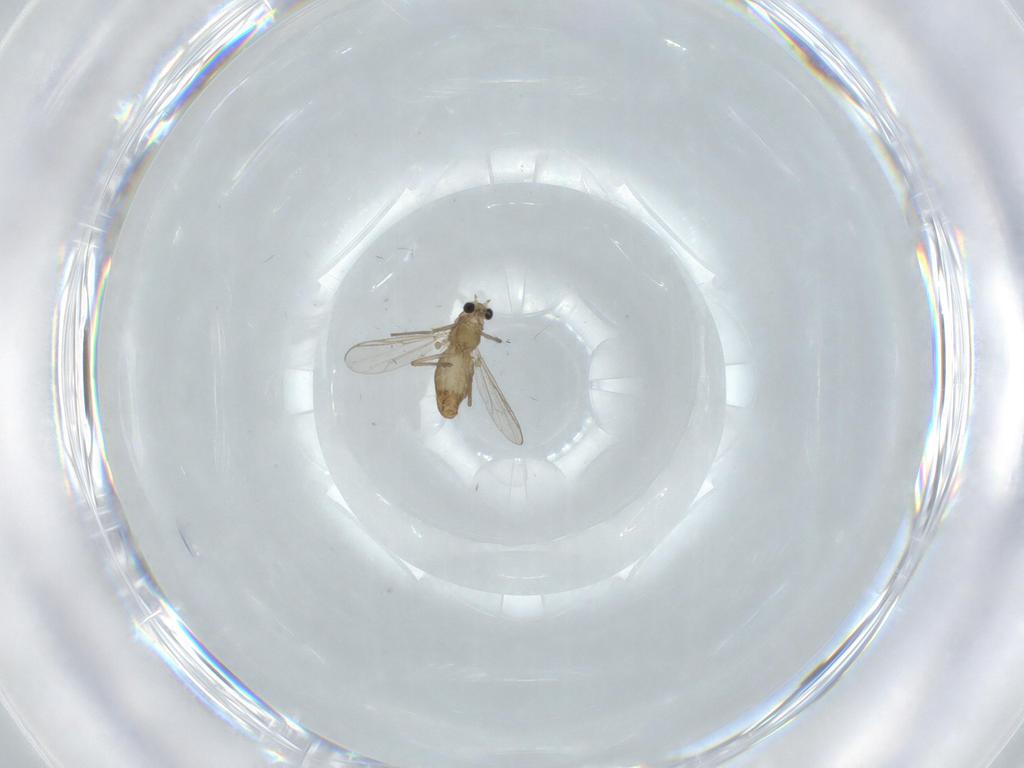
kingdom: Animalia
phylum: Arthropoda
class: Insecta
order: Diptera
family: Chironomidae
